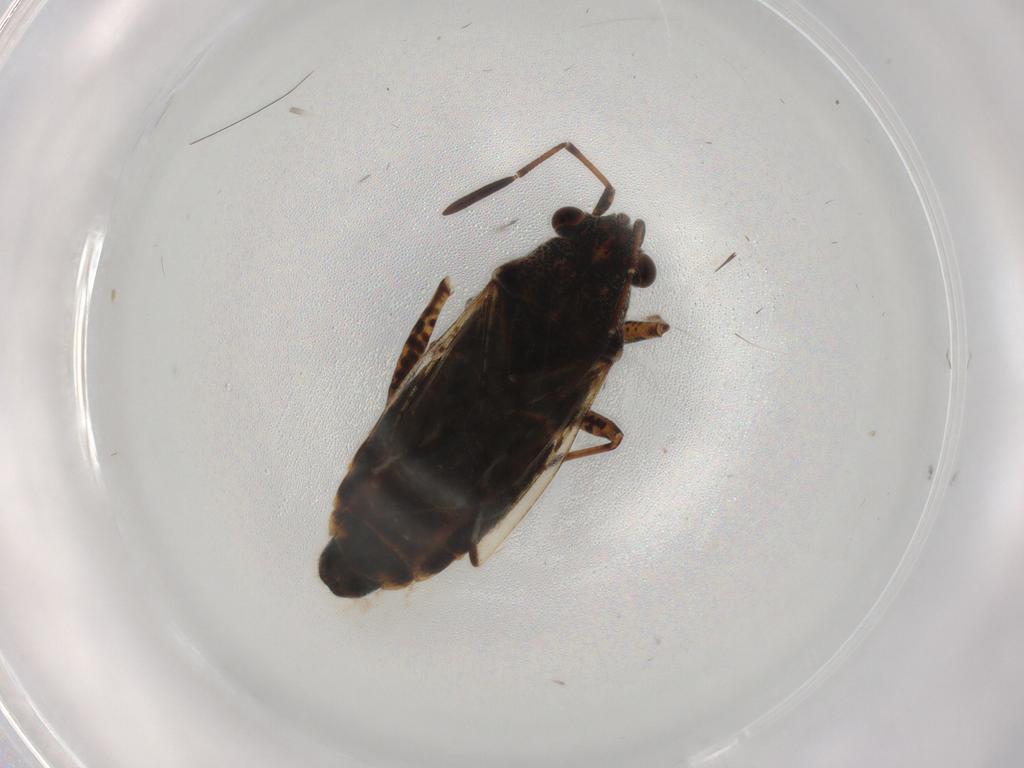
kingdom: Animalia
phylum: Arthropoda
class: Insecta
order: Hemiptera
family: Lygaeidae
